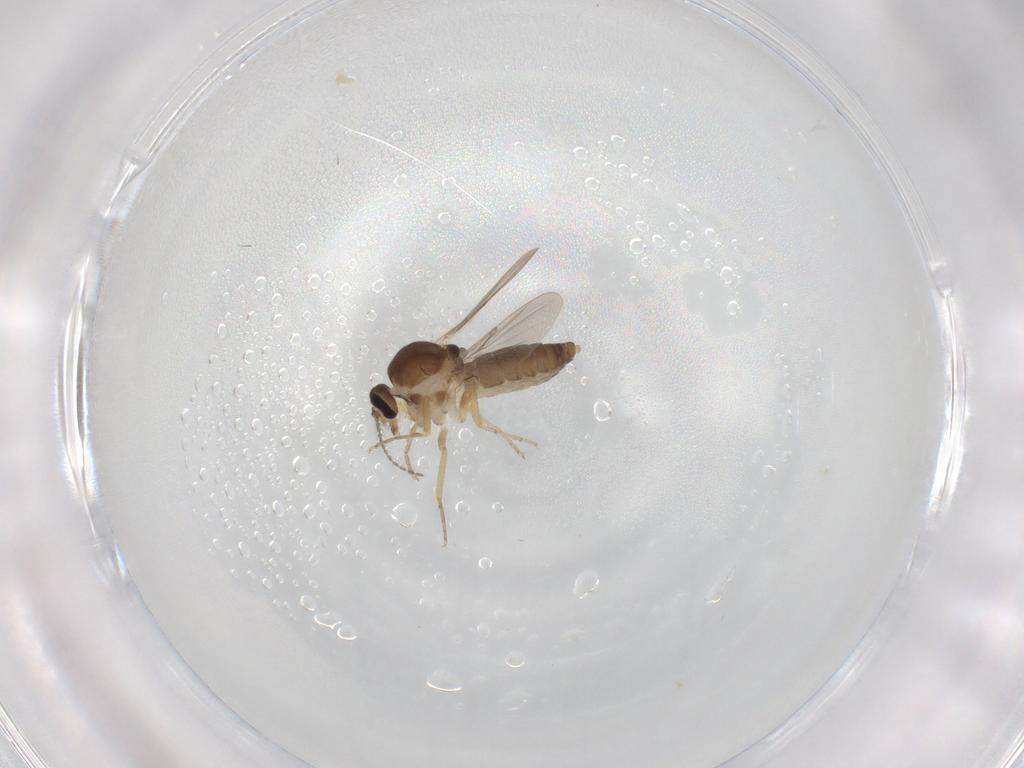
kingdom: Animalia
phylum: Arthropoda
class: Insecta
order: Diptera
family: Ceratopogonidae
